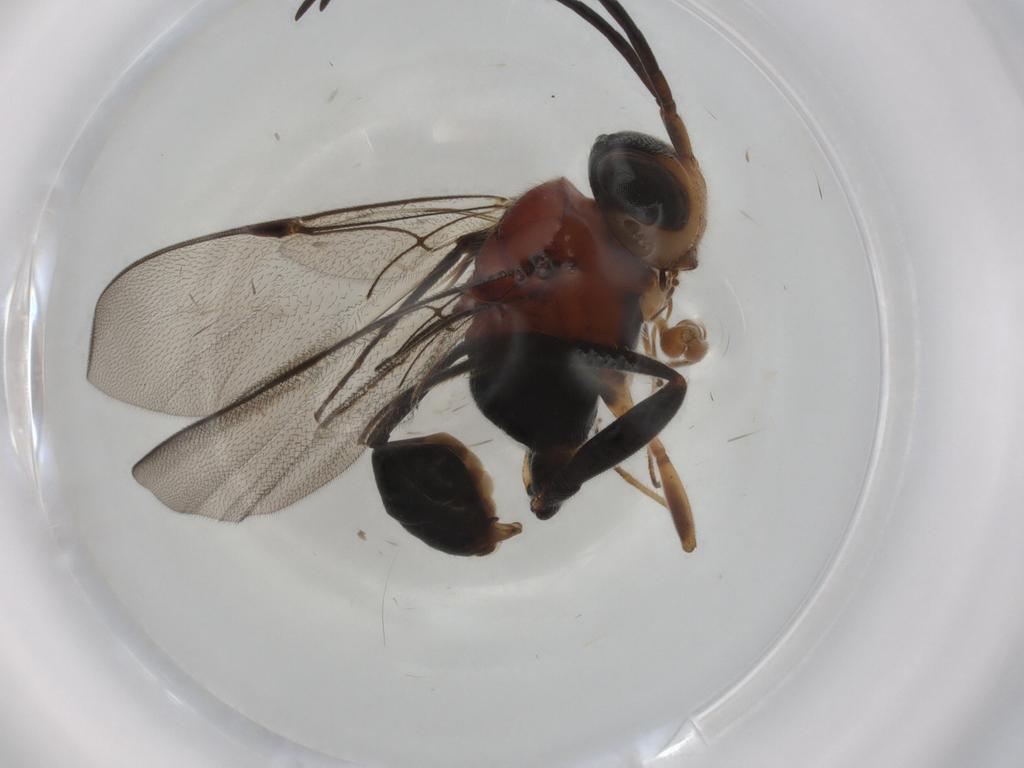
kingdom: Animalia
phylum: Arthropoda
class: Insecta
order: Hymenoptera
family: Evaniidae
